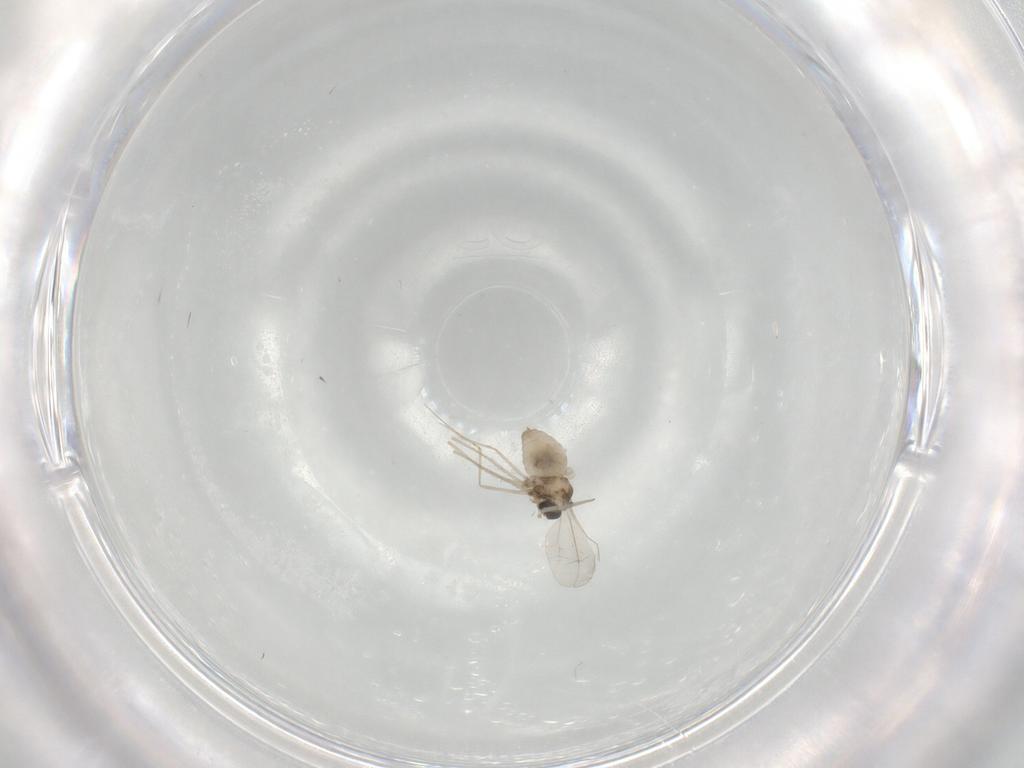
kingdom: Animalia
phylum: Arthropoda
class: Insecta
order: Diptera
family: Cecidomyiidae
